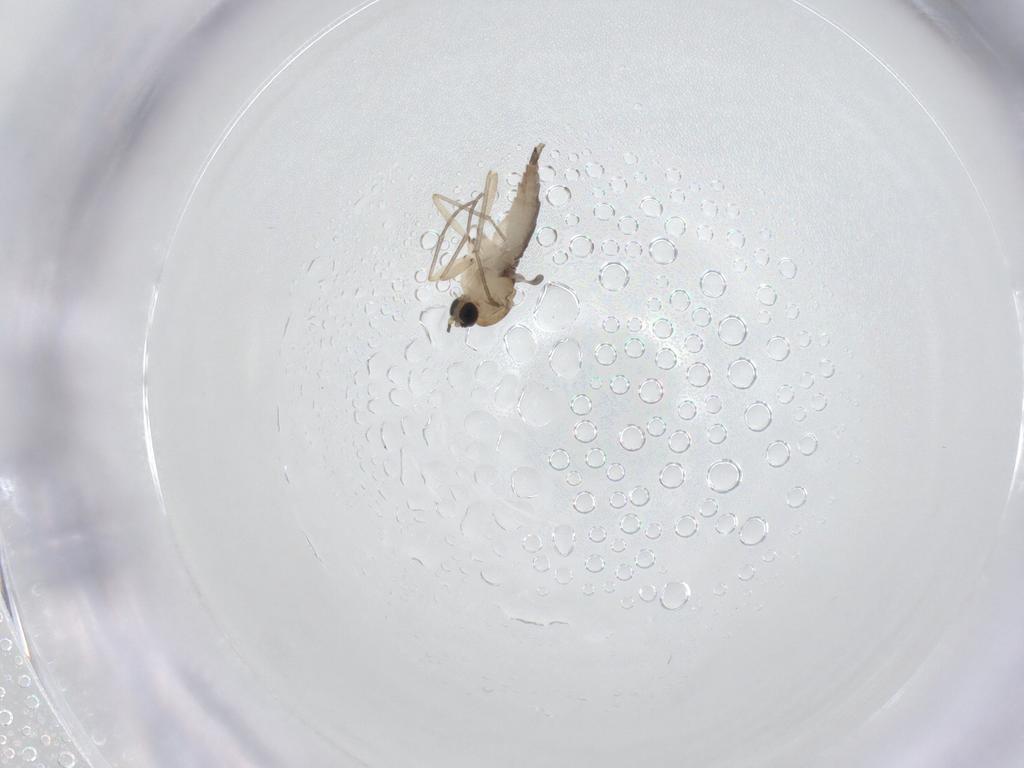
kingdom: Animalia
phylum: Arthropoda
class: Insecta
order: Diptera
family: Sciaridae
